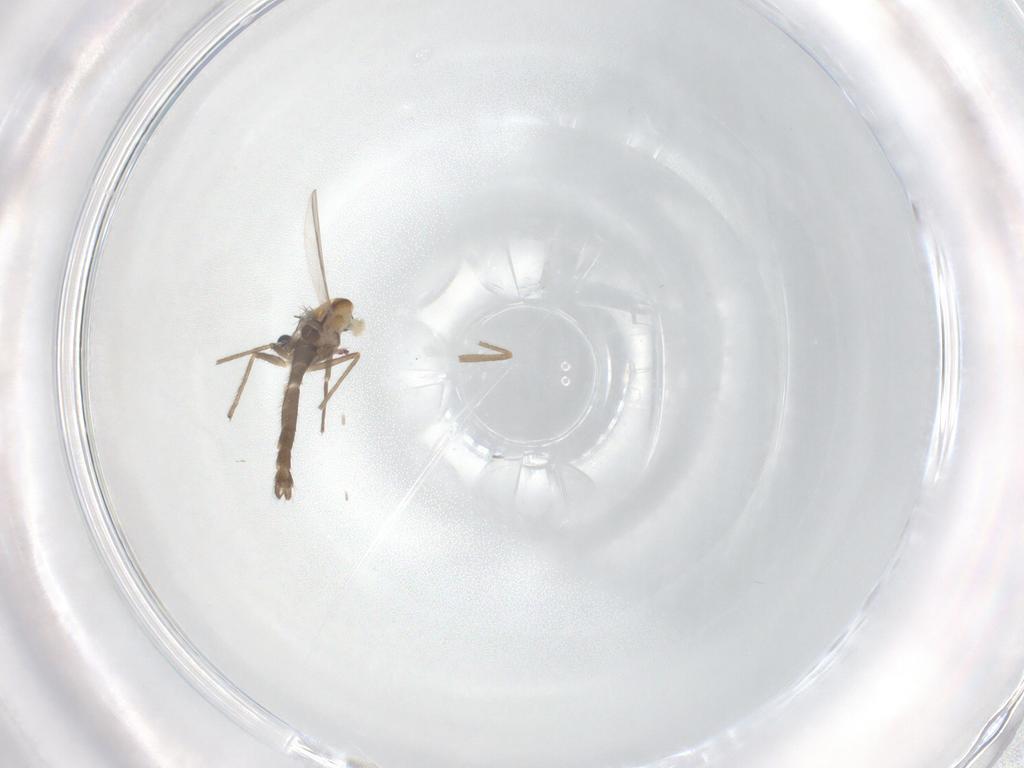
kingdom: Animalia
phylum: Arthropoda
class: Insecta
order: Diptera
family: Chironomidae
